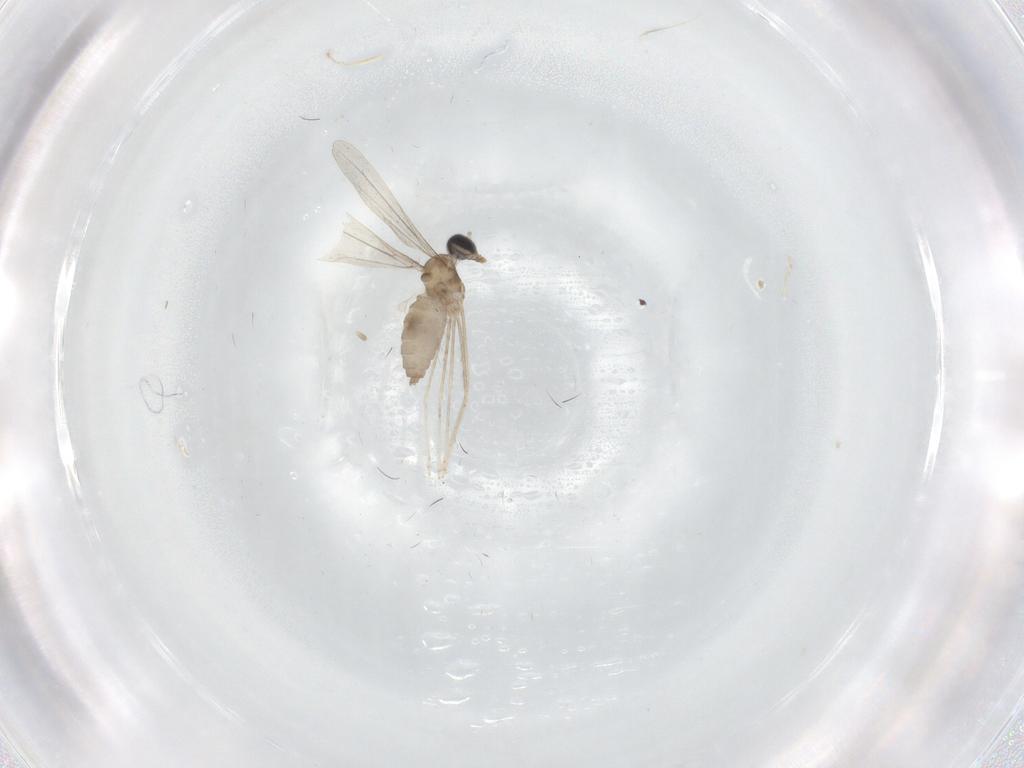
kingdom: Animalia
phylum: Arthropoda
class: Insecta
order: Diptera
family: Cecidomyiidae
